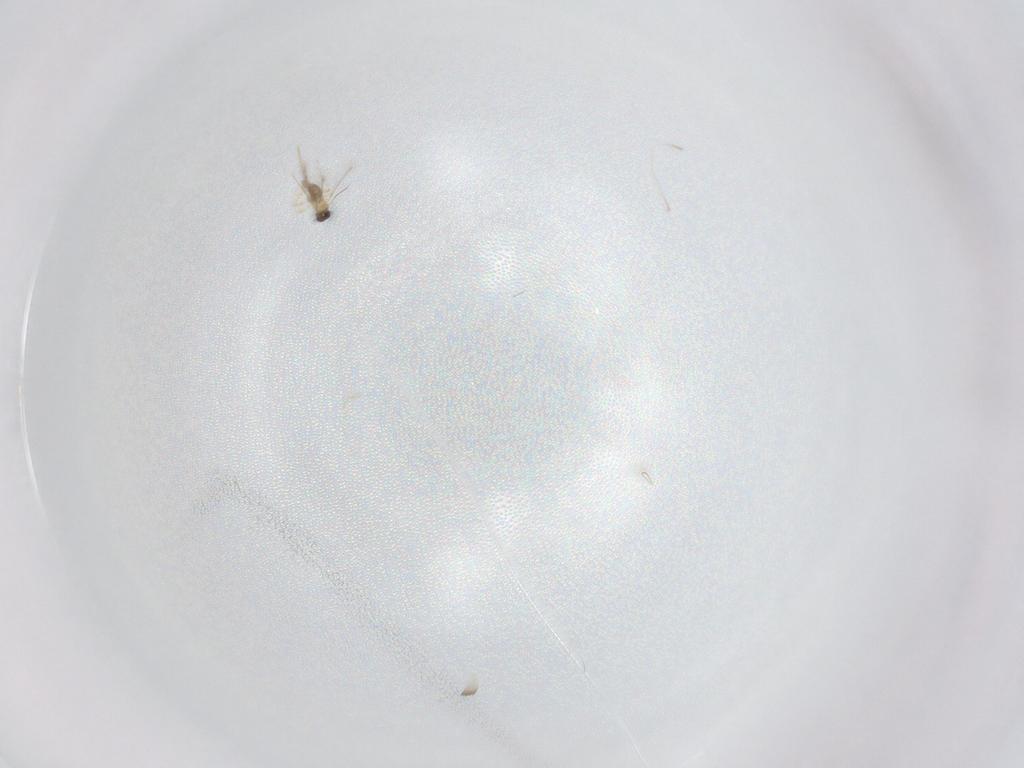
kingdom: Animalia
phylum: Arthropoda
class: Insecta
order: Hymenoptera
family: Mymaridae
